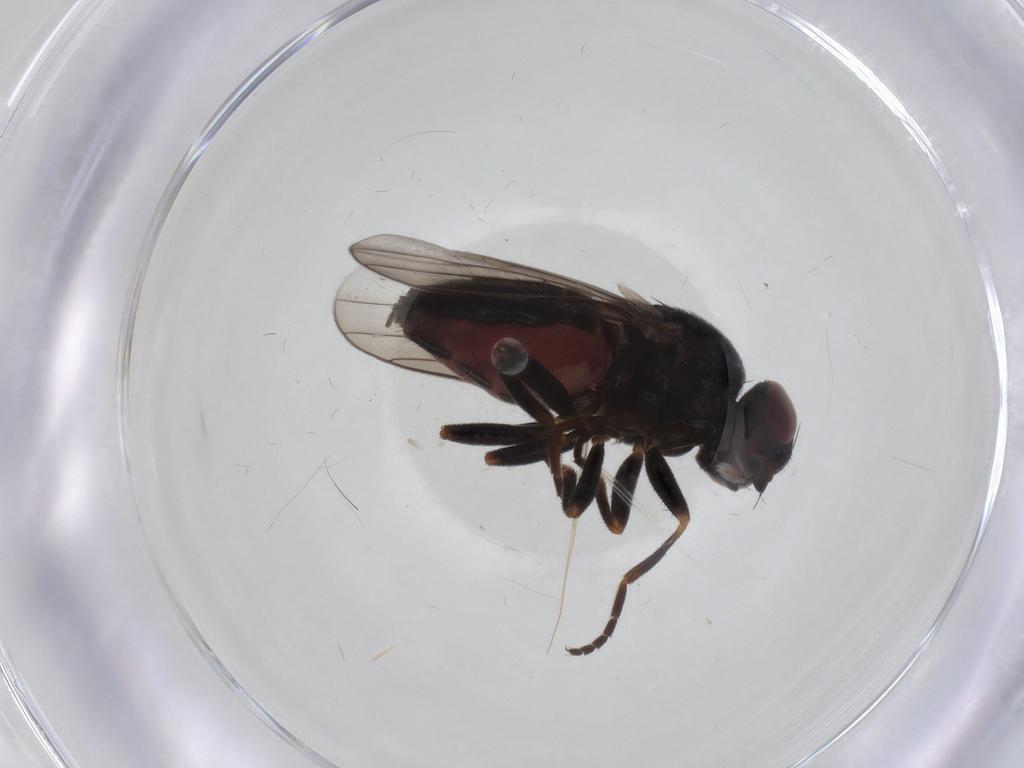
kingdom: Animalia
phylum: Arthropoda
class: Insecta
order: Diptera
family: Chloropidae
